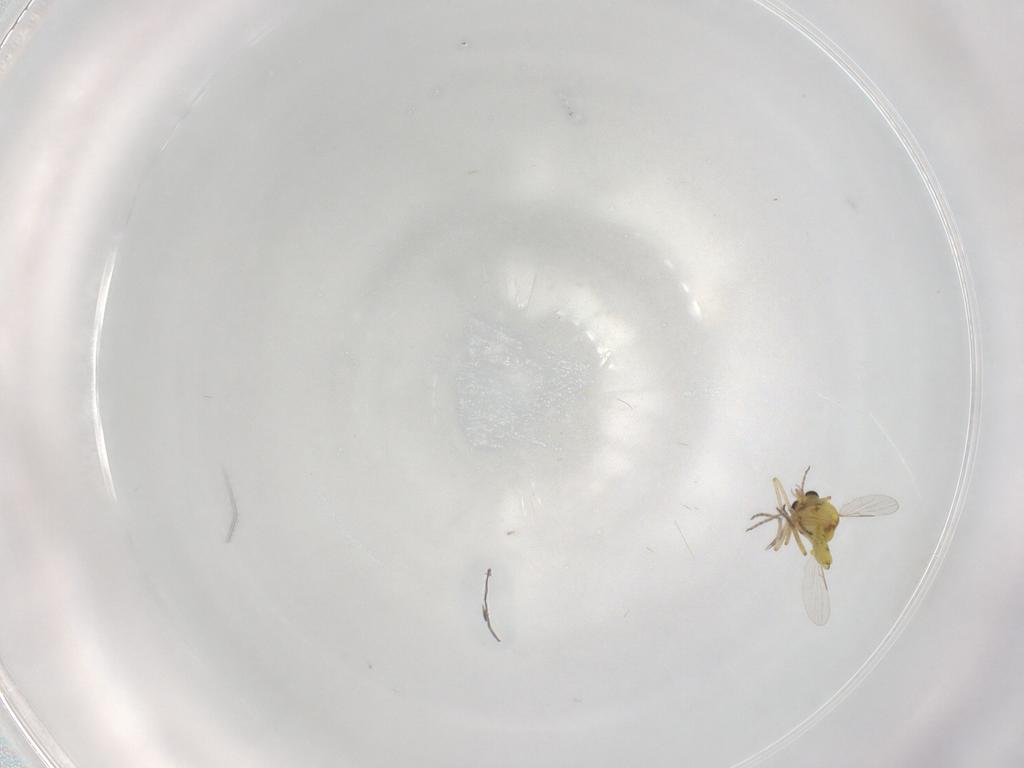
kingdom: Animalia
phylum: Arthropoda
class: Insecta
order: Diptera
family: Ceratopogonidae
